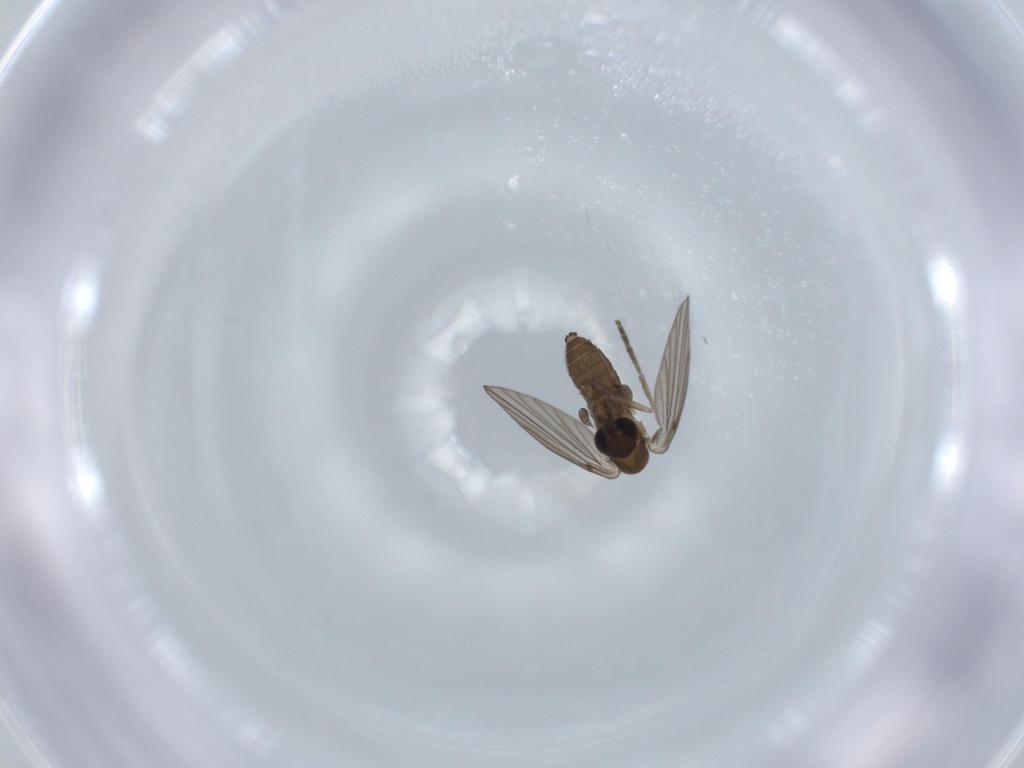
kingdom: Animalia
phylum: Arthropoda
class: Insecta
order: Diptera
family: Psychodidae
